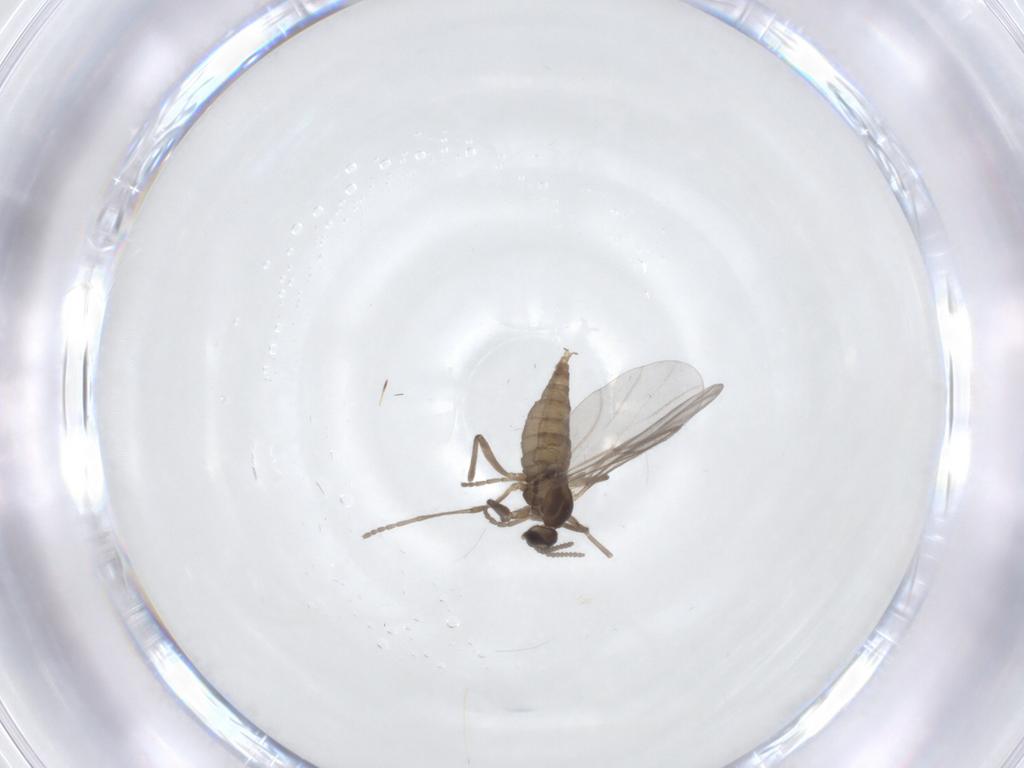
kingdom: Animalia
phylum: Arthropoda
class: Insecta
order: Diptera
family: Cecidomyiidae
